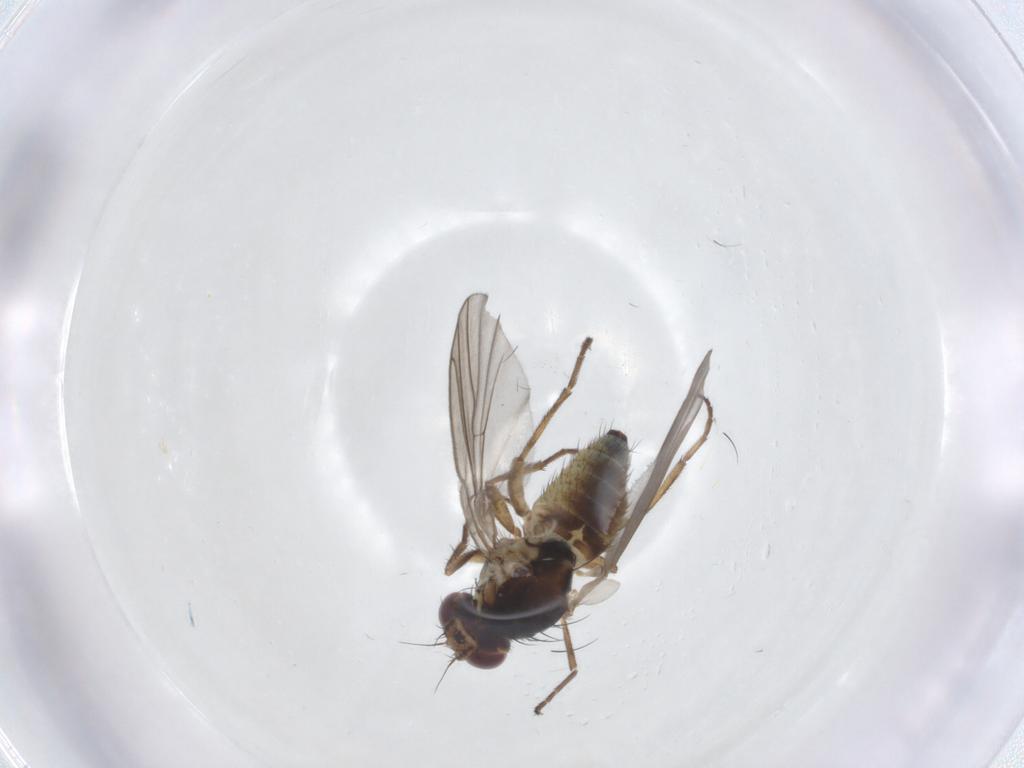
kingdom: Animalia
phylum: Arthropoda
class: Insecta
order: Diptera
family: Agromyzidae
